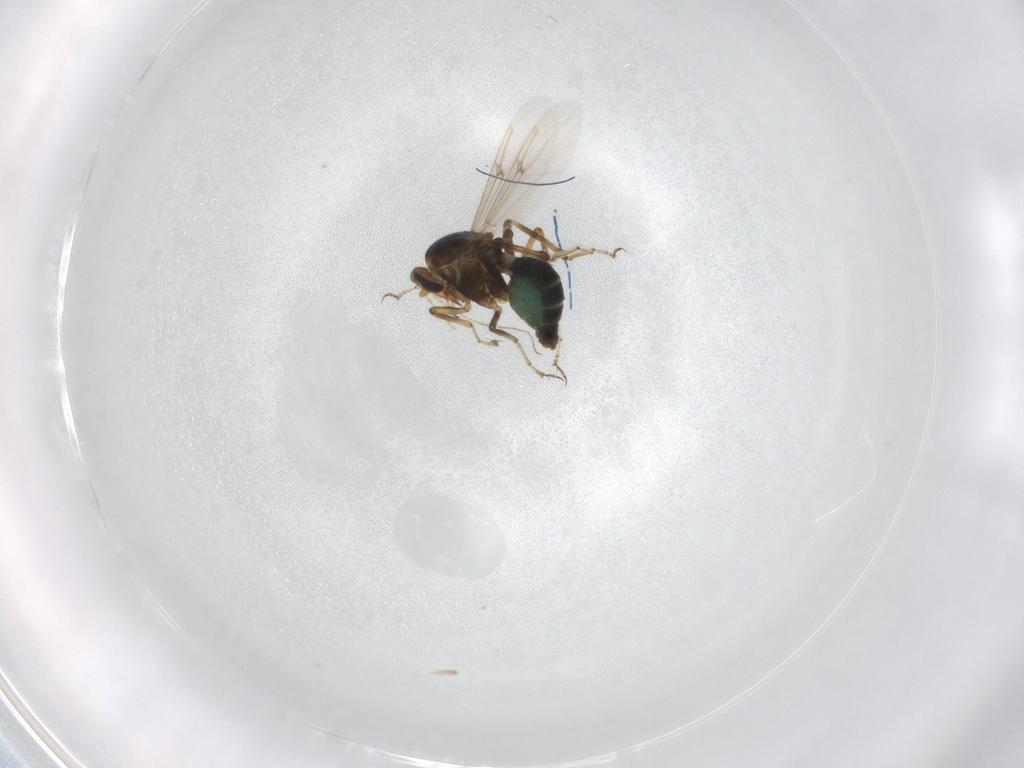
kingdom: Animalia
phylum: Arthropoda
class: Insecta
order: Diptera
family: Ceratopogonidae
